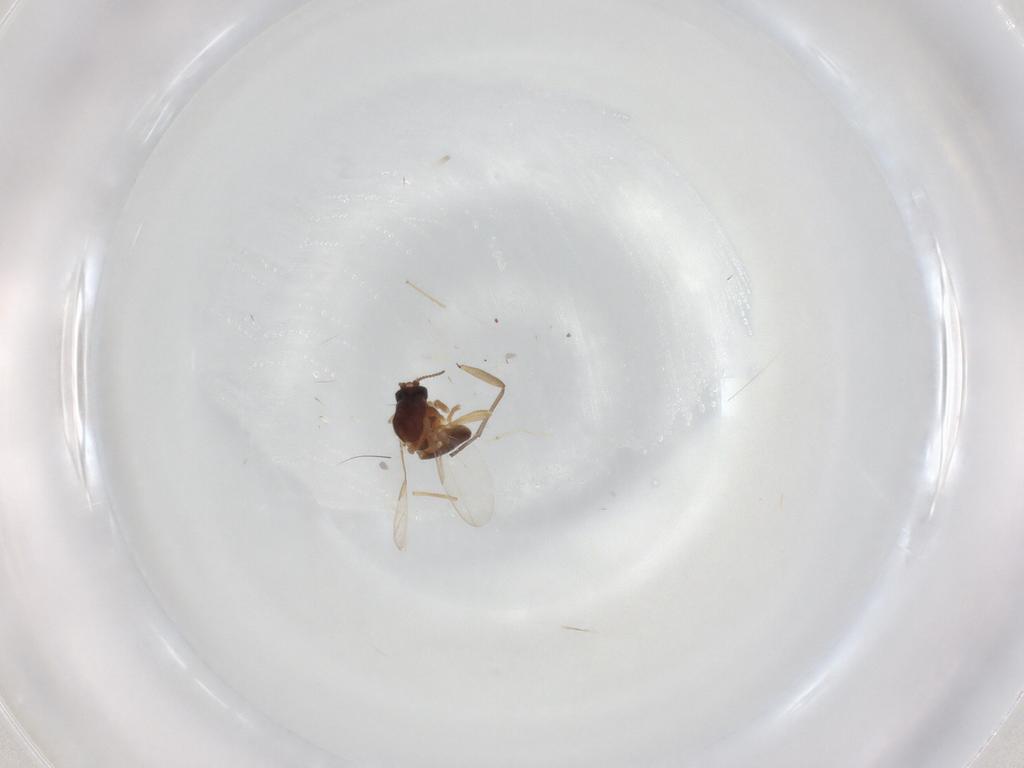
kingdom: Animalia
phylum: Arthropoda
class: Insecta
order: Diptera
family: Ceratopogonidae
